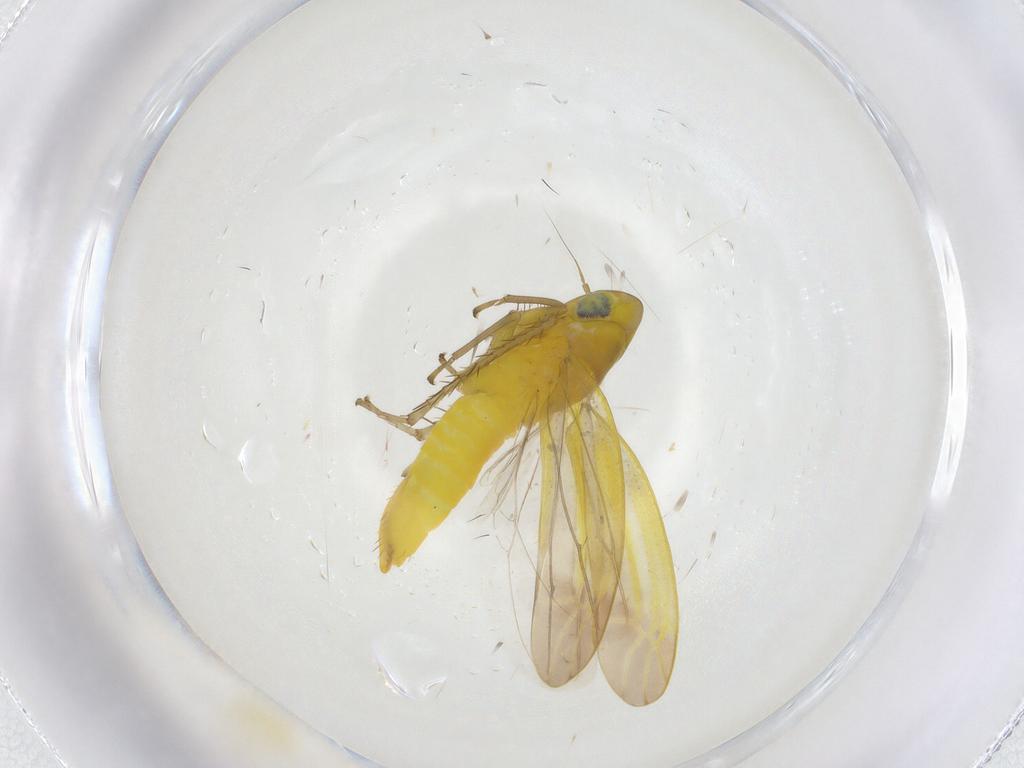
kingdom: Animalia
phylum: Arthropoda
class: Insecta
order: Hemiptera
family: Cicadellidae
